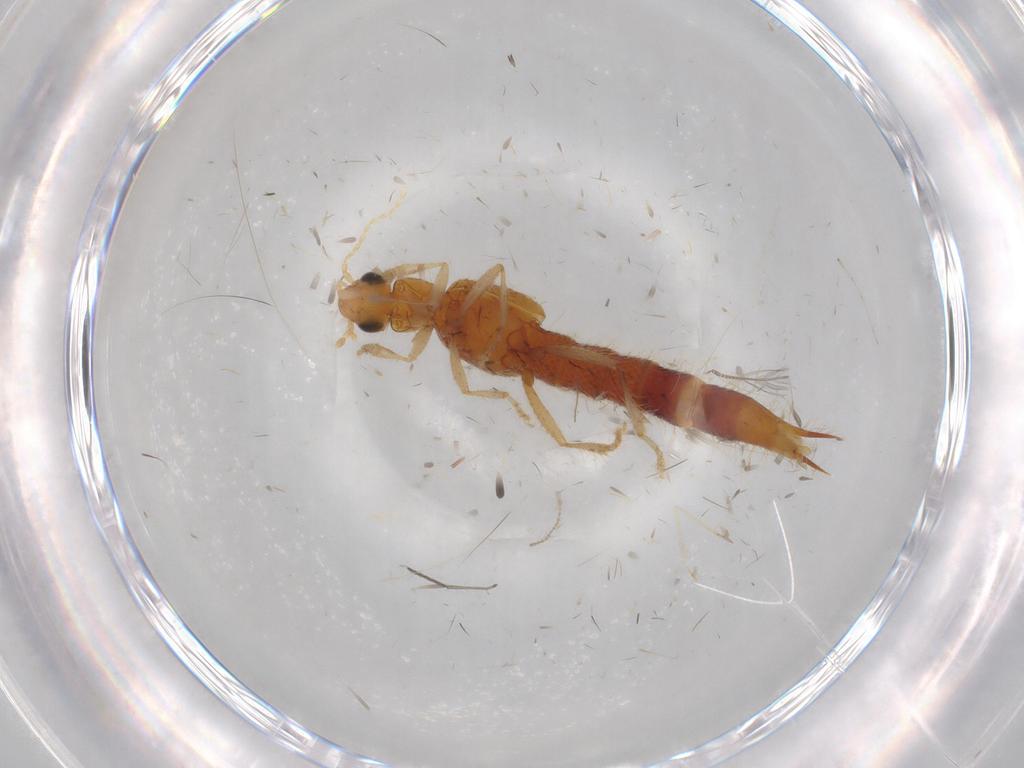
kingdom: Animalia
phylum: Arthropoda
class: Insecta
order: Coleoptera
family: Staphylinidae
